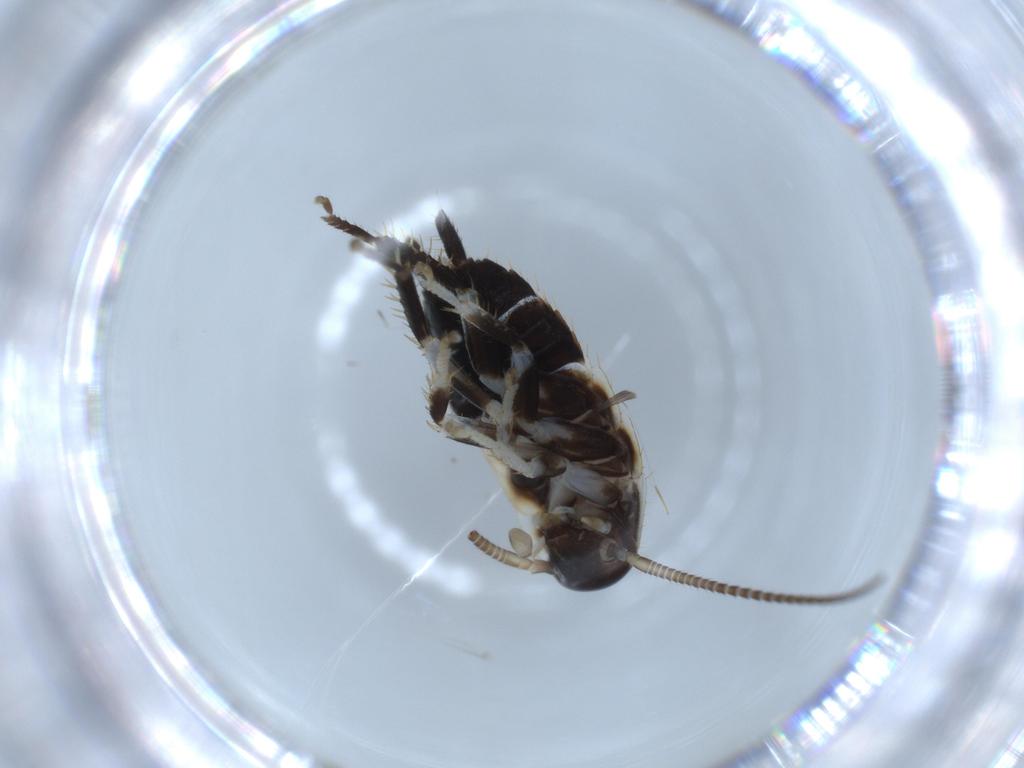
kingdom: Animalia
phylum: Arthropoda
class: Insecta
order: Blattodea
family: Ectobiidae
